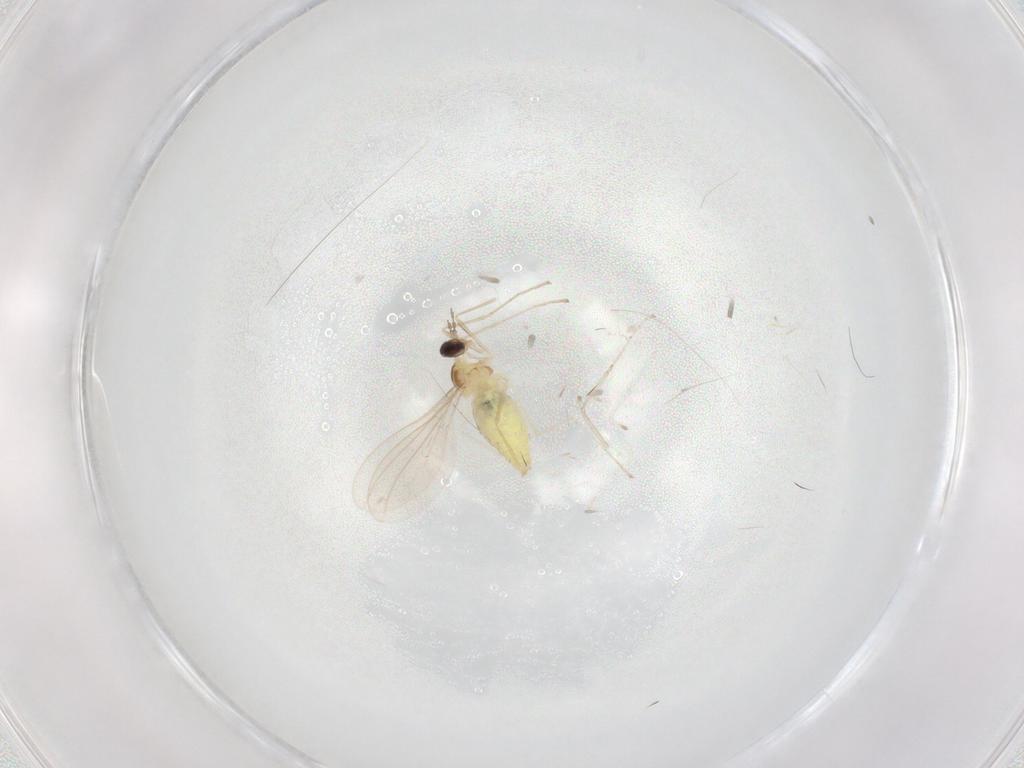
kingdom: Animalia
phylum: Arthropoda
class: Insecta
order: Diptera
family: Cecidomyiidae
